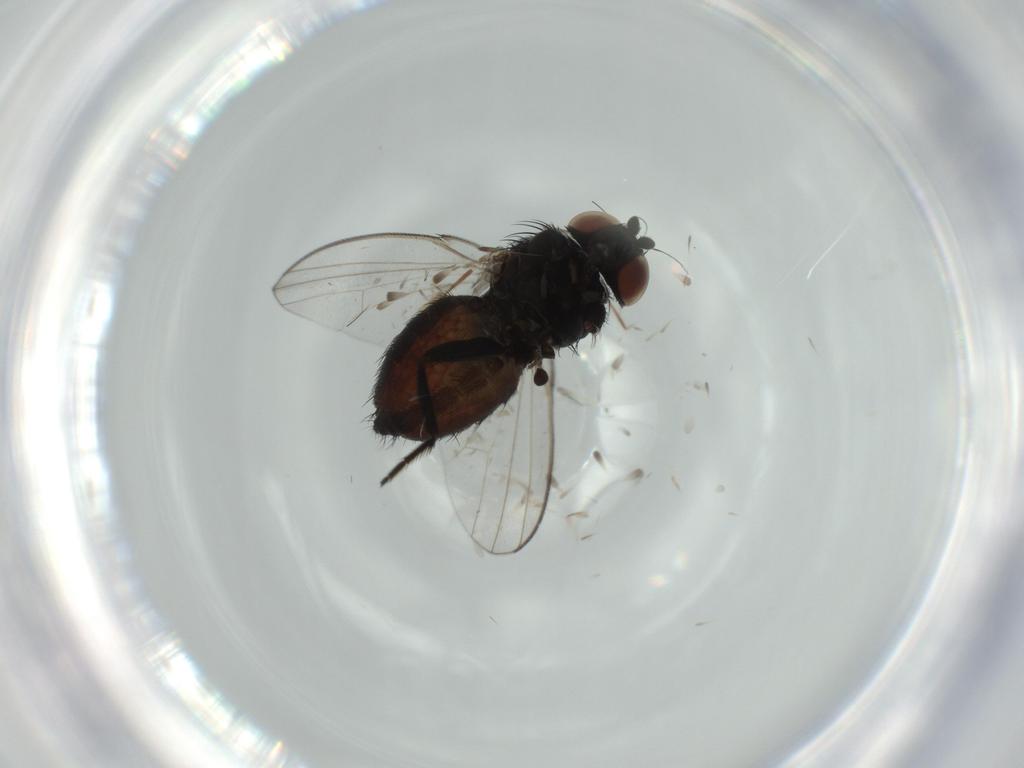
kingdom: Animalia
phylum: Arthropoda
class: Insecta
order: Diptera
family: Milichiidae
